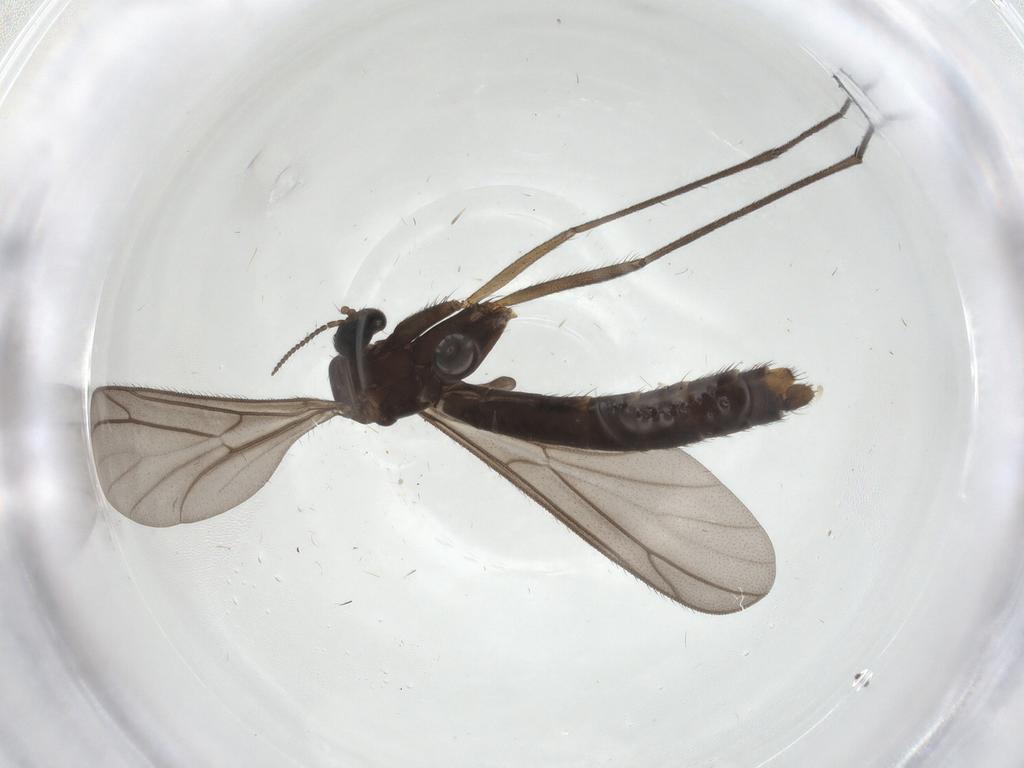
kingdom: Animalia
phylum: Arthropoda
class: Insecta
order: Diptera
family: Keroplatidae
